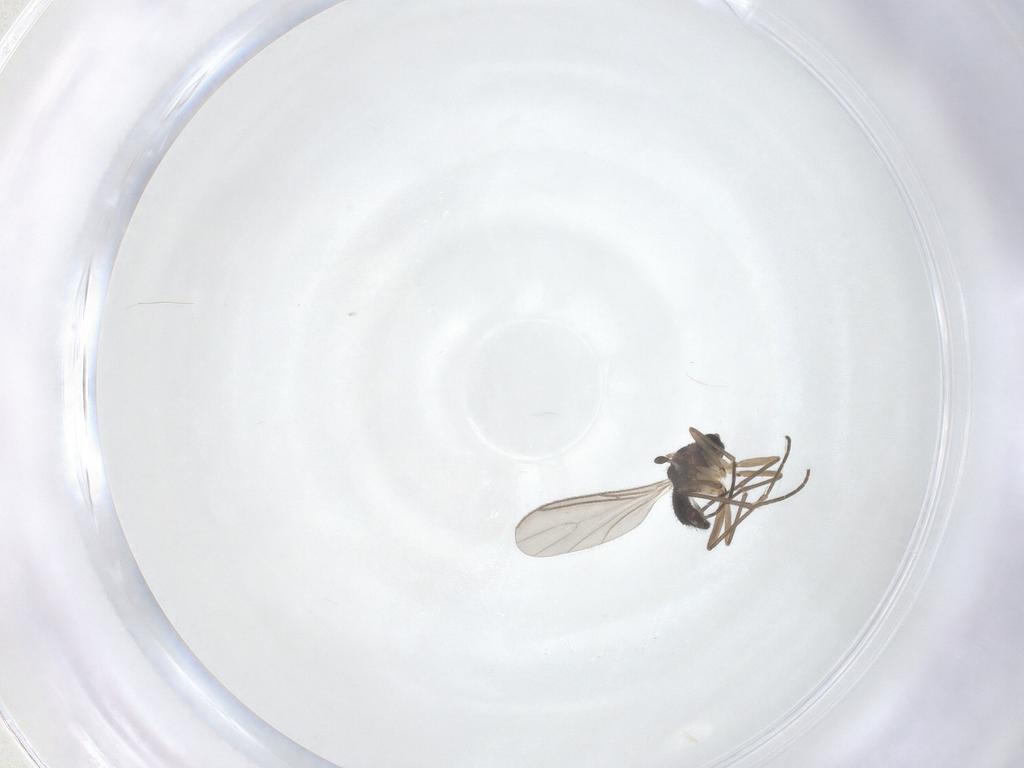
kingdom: Animalia
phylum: Arthropoda
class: Insecta
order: Diptera
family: Sciaridae
